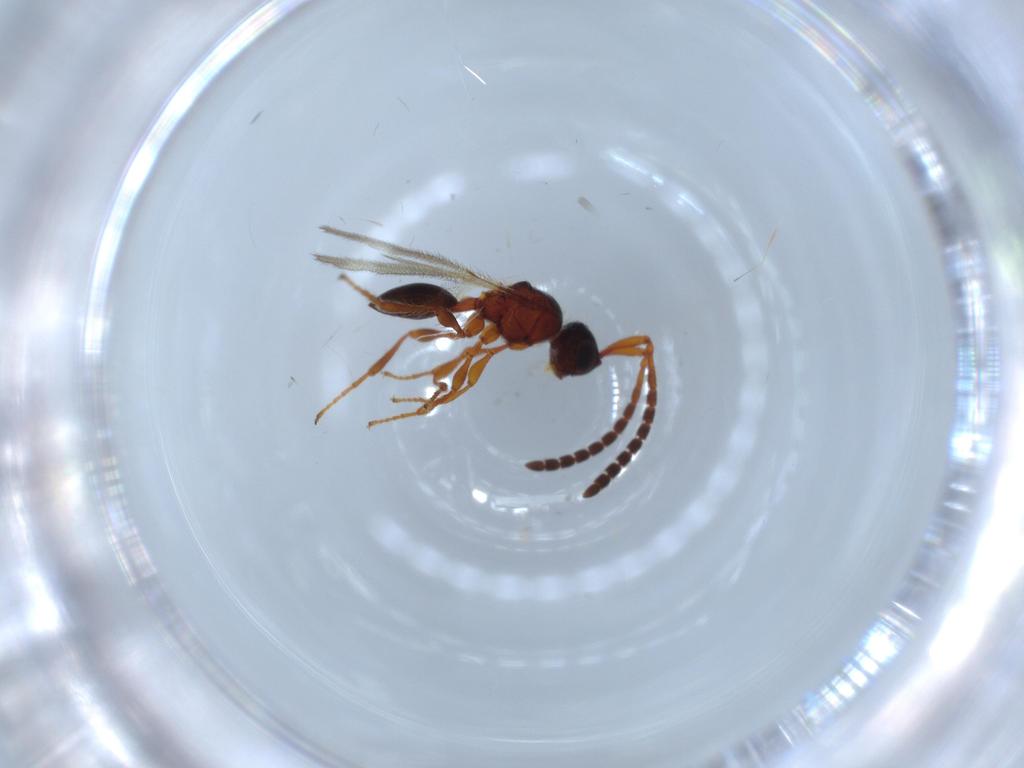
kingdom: Animalia
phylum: Arthropoda
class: Insecta
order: Hymenoptera
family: Diapriidae
